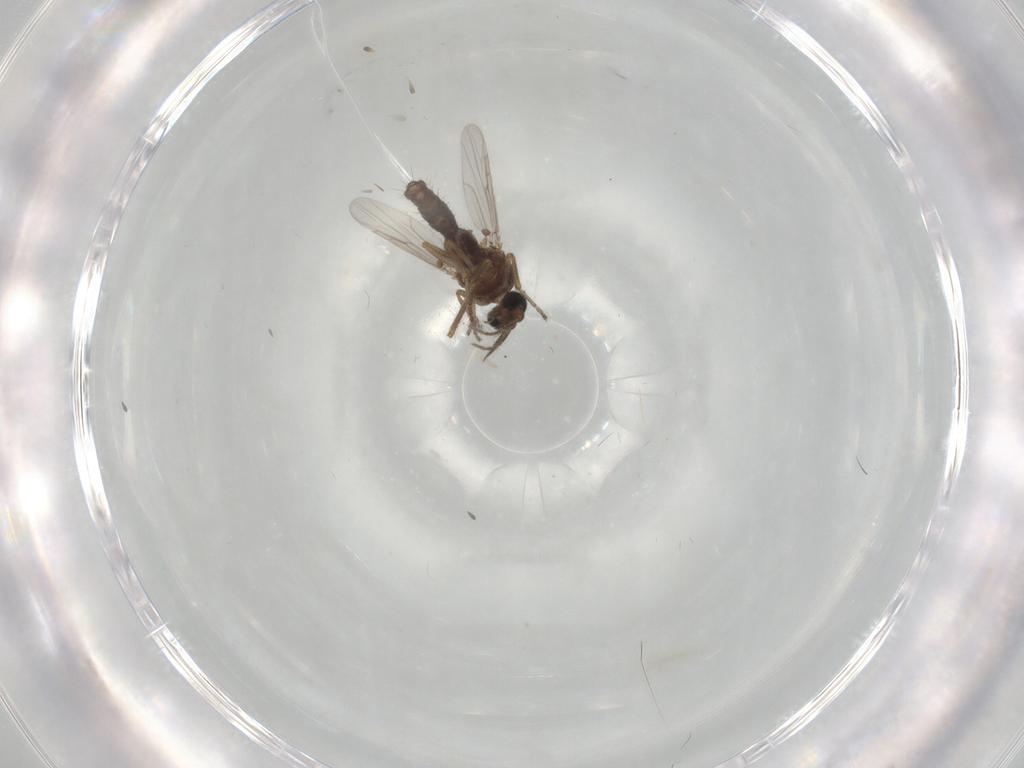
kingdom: Animalia
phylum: Arthropoda
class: Insecta
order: Diptera
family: Ceratopogonidae
